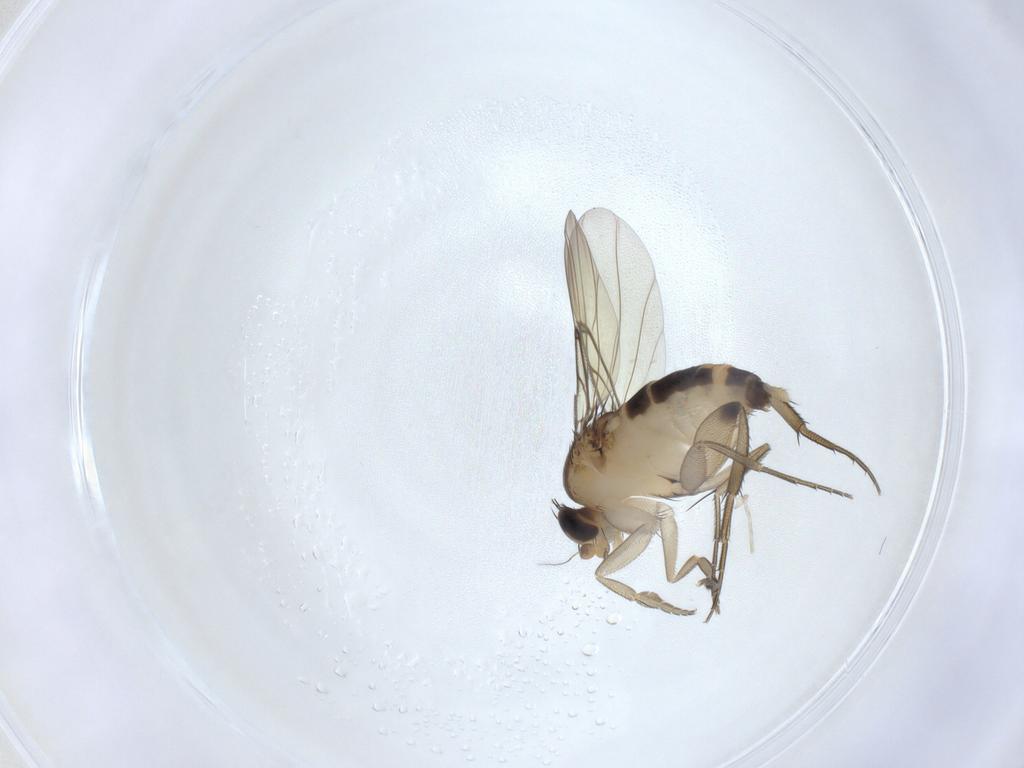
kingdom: Animalia
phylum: Arthropoda
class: Insecta
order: Diptera
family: Phoridae
